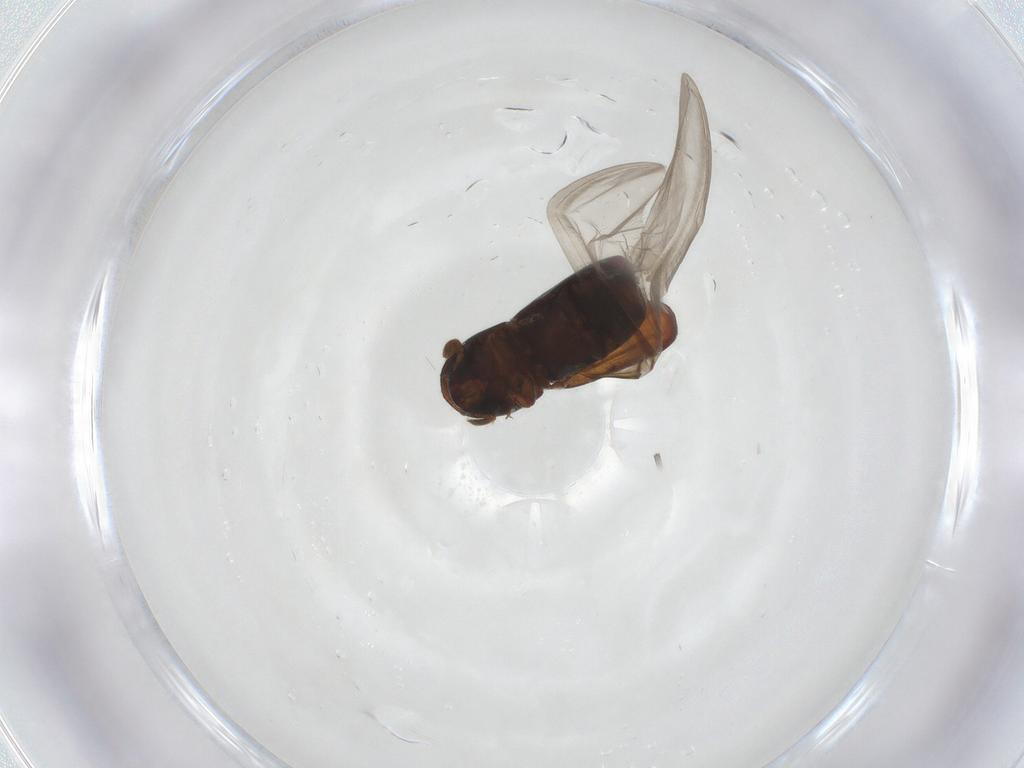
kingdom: Animalia
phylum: Arthropoda
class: Insecta
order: Coleoptera
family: Curculionidae
